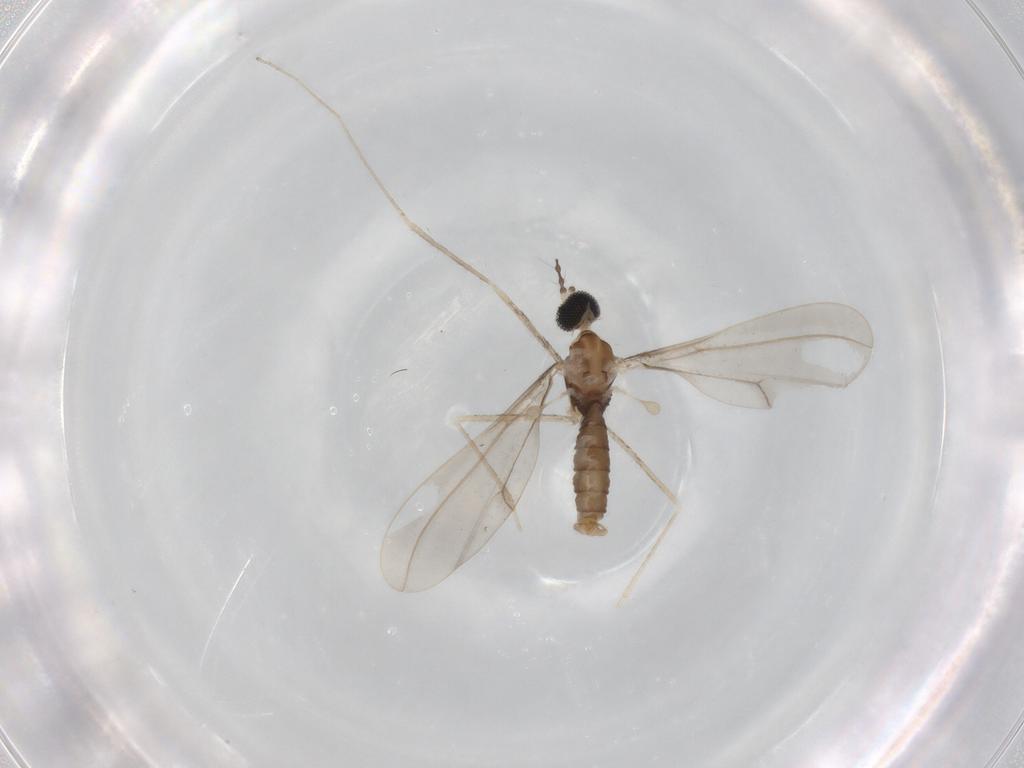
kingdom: Animalia
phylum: Arthropoda
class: Insecta
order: Diptera
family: Cecidomyiidae
